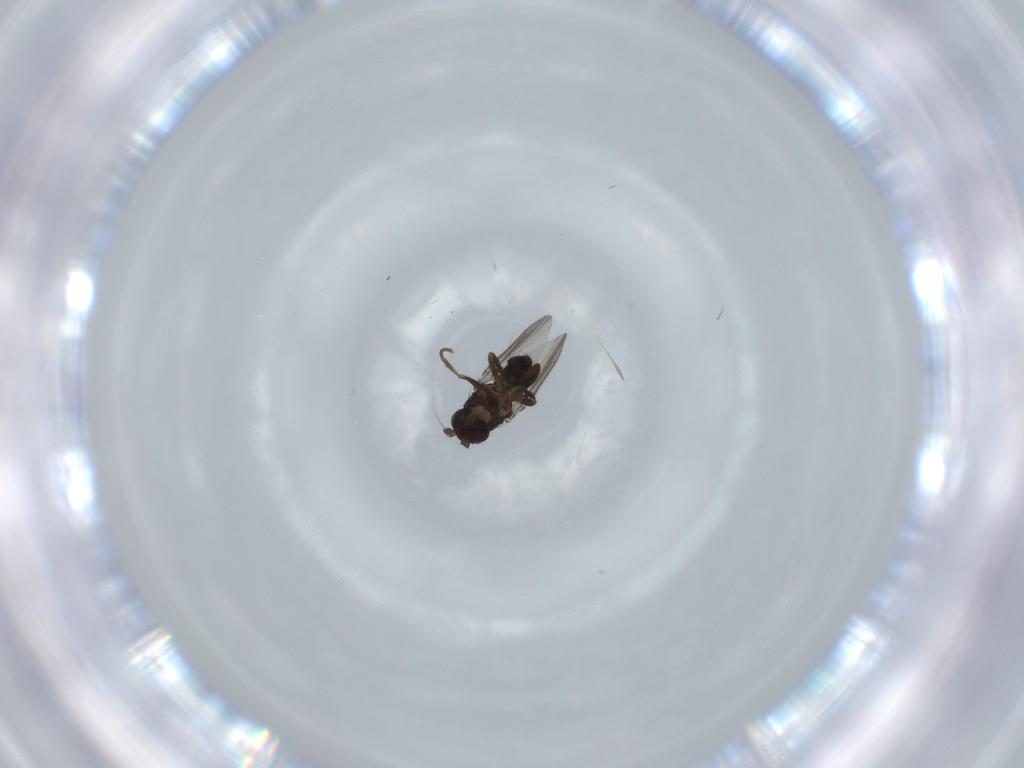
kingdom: Animalia
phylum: Arthropoda
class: Insecta
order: Diptera
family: Sphaeroceridae
